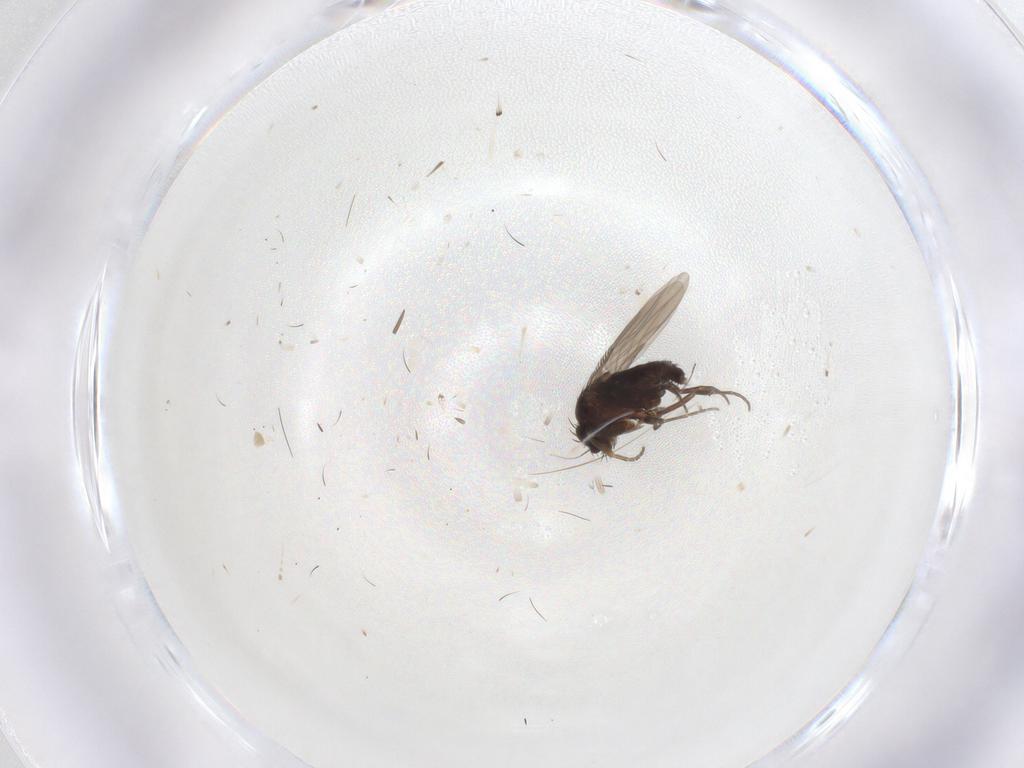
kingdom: Animalia
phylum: Arthropoda
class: Insecta
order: Diptera
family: Phoridae
